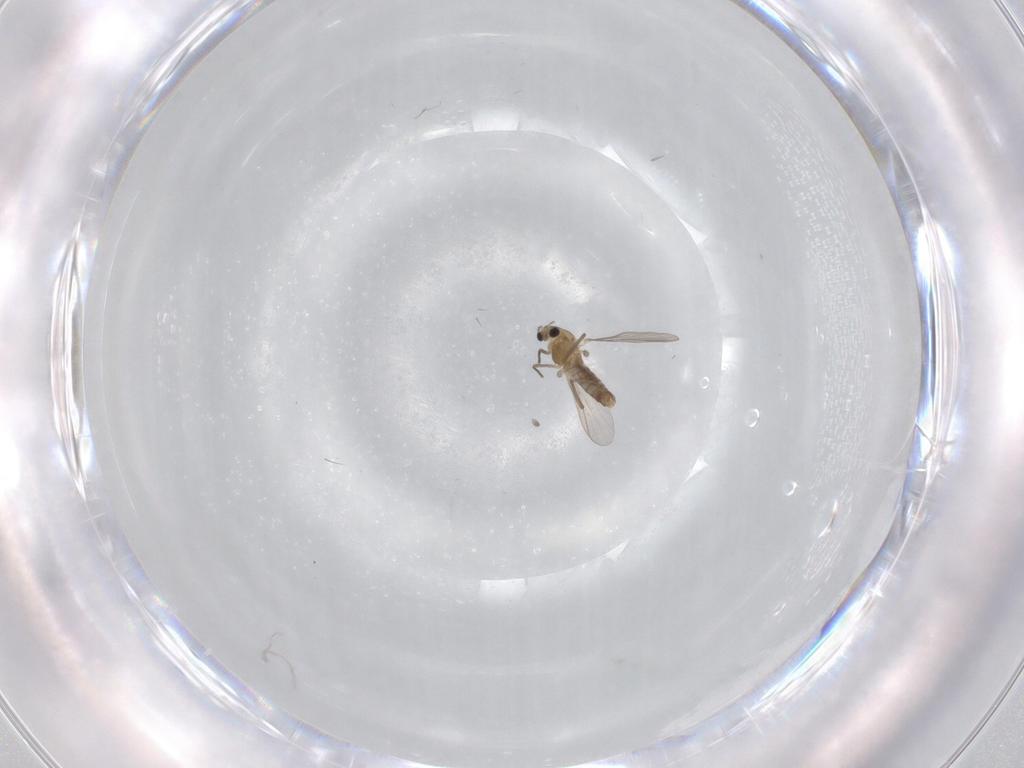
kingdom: Animalia
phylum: Arthropoda
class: Insecta
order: Diptera
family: Chironomidae
